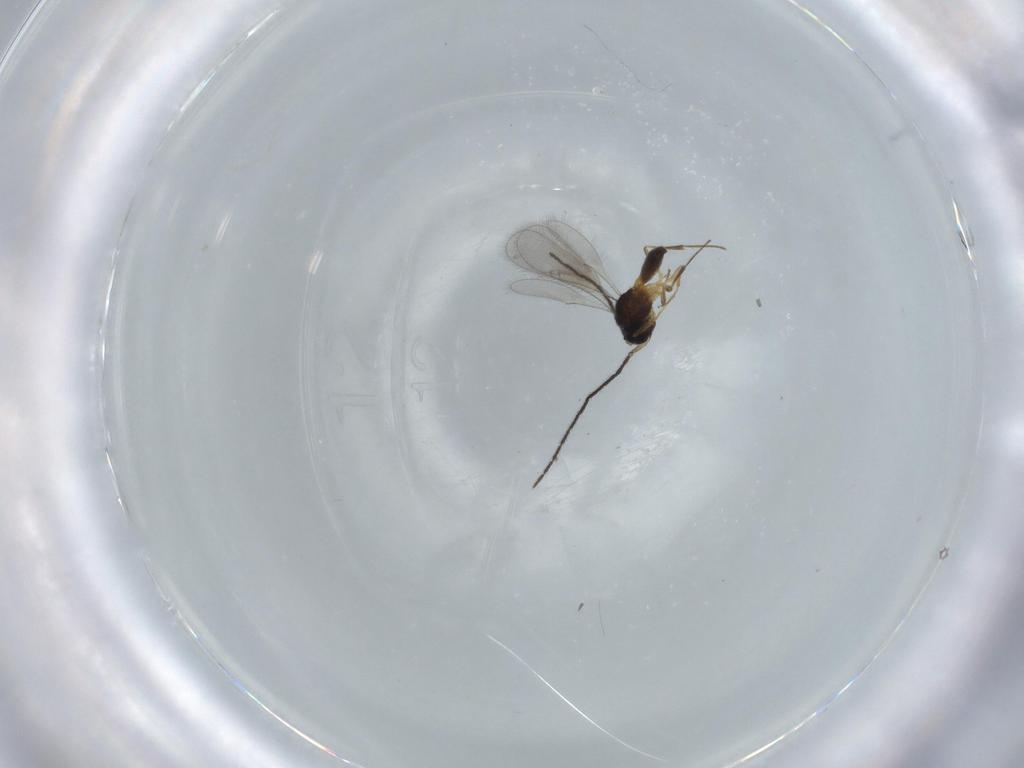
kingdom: Animalia
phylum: Arthropoda
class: Insecta
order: Hymenoptera
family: Scelionidae
